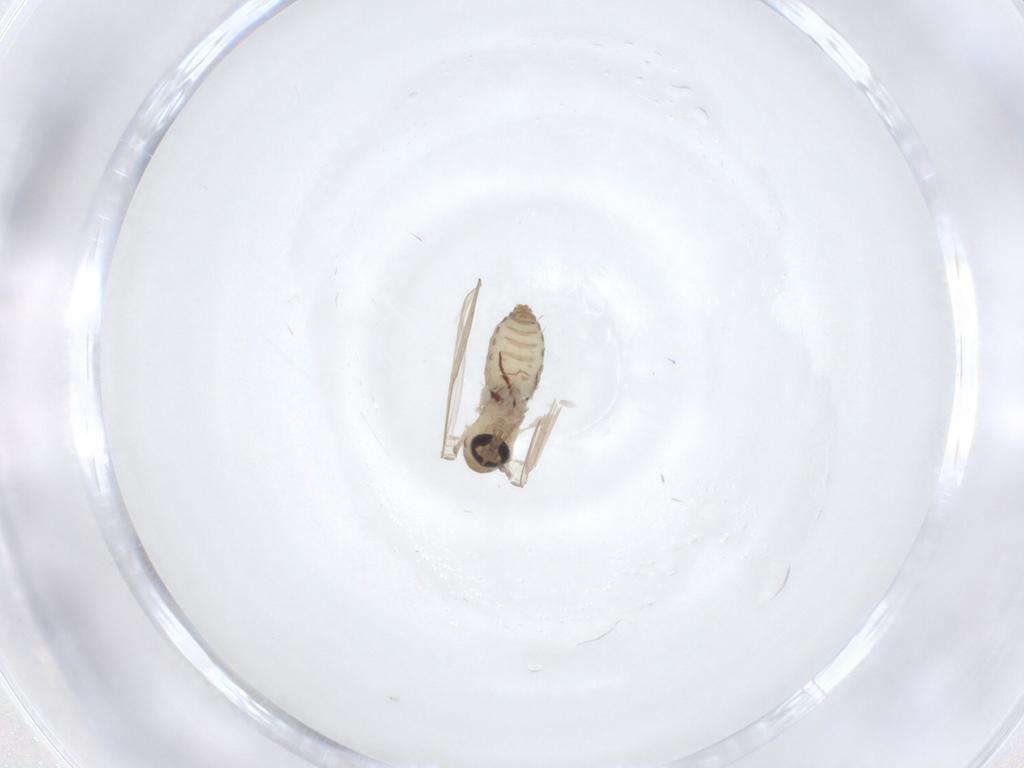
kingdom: Animalia
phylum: Arthropoda
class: Insecta
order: Diptera
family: Psychodidae
